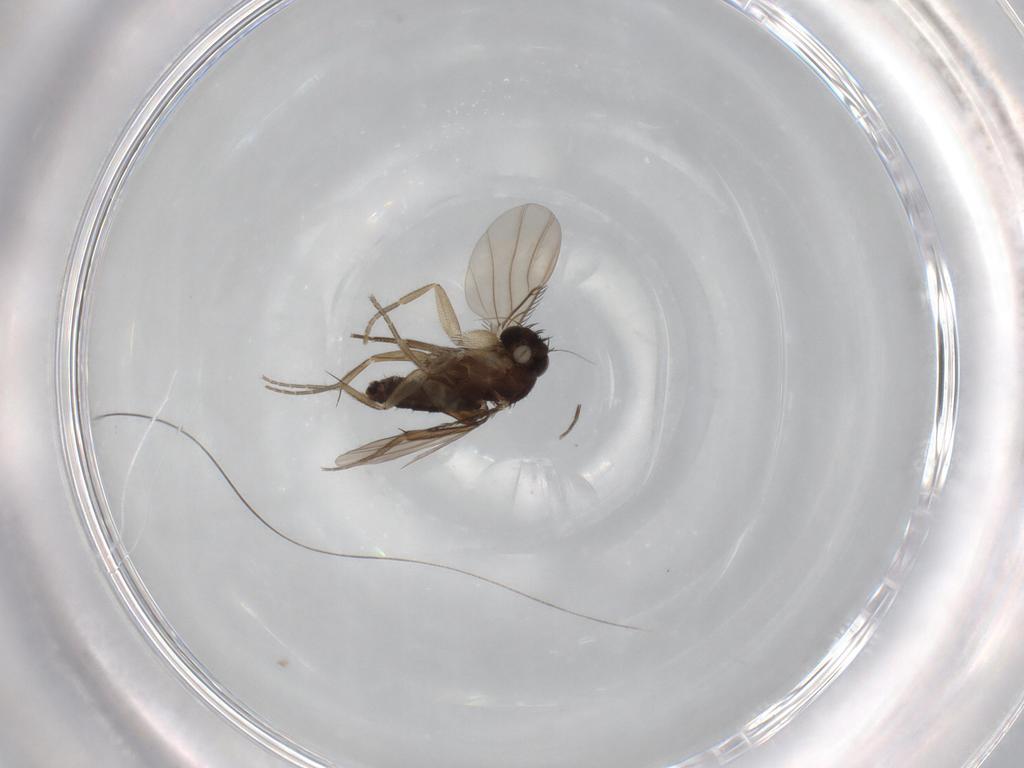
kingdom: Animalia
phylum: Arthropoda
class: Insecta
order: Diptera
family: Phoridae
